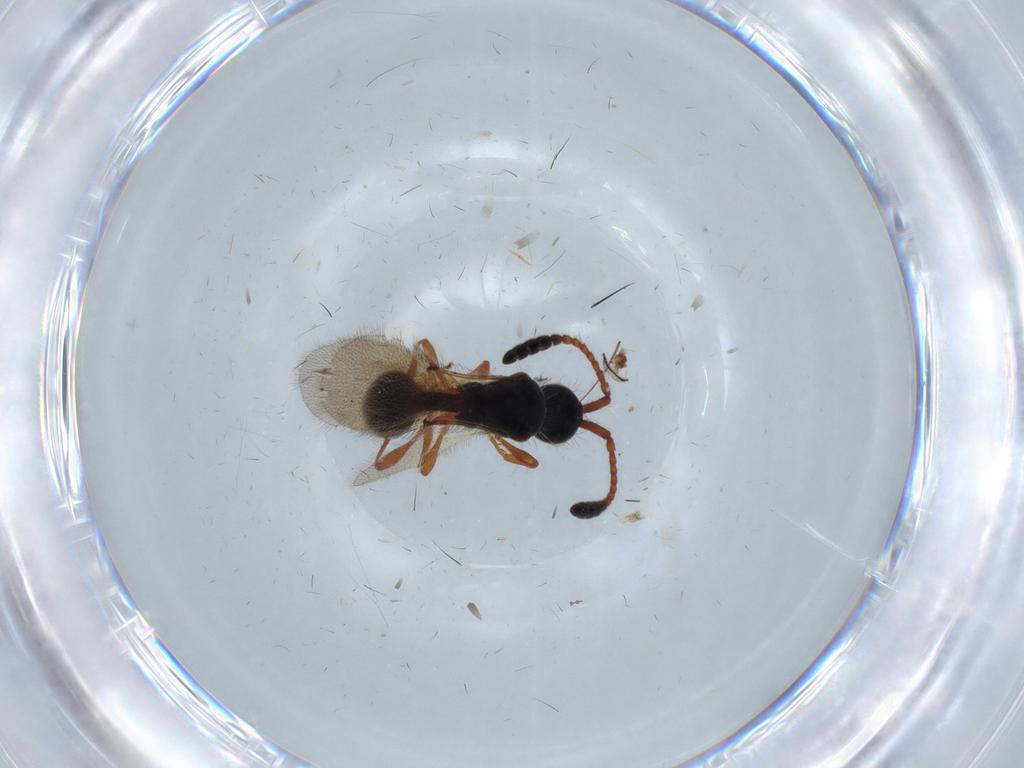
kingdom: Animalia
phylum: Arthropoda
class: Insecta
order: Hymenoptera
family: Diapriidae
